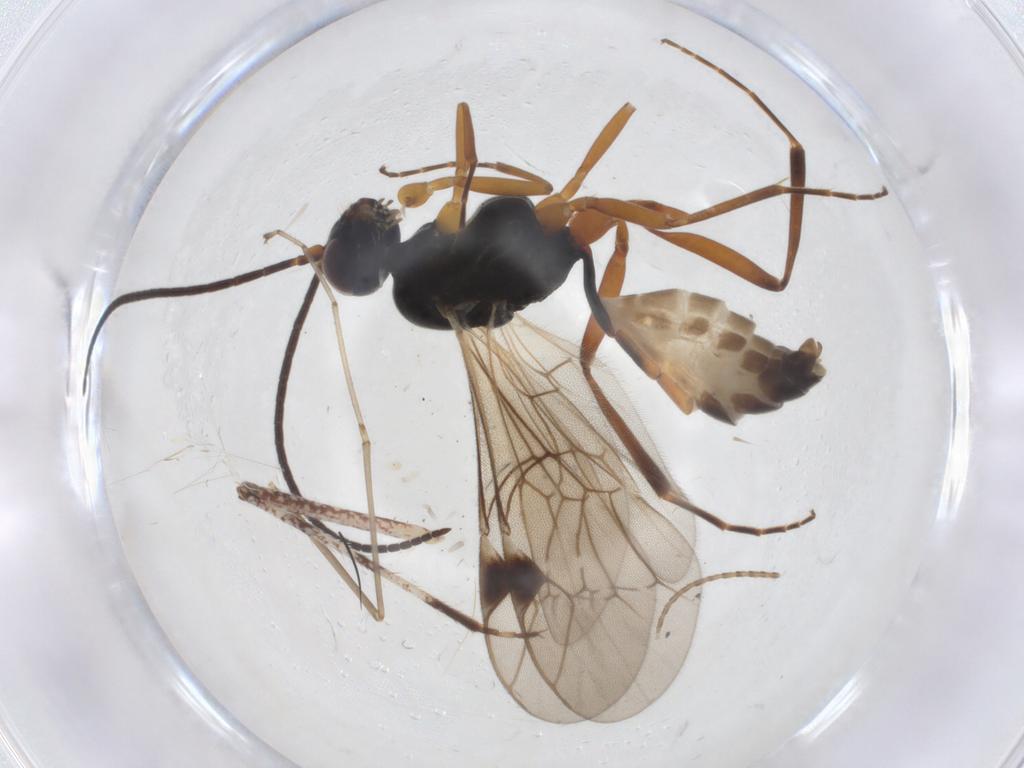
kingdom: Animalia
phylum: Arthropoda
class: Insecta
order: Hymenoptera
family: Ichneumonidae
